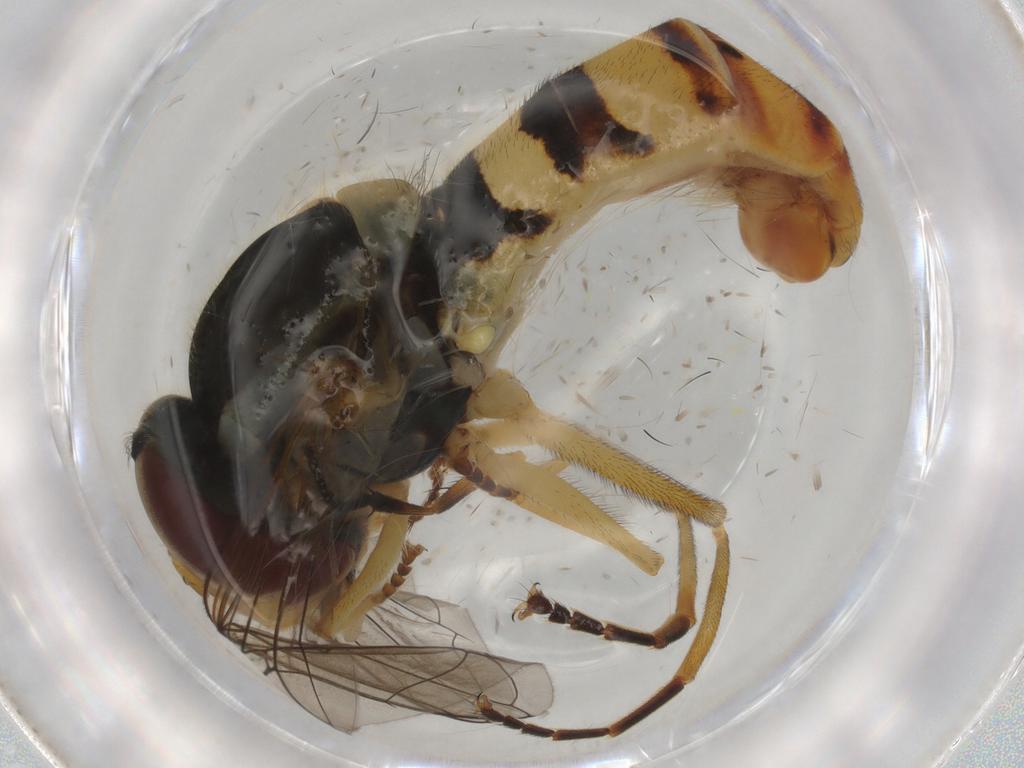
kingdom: Animalia
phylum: Arthropoda
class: Insecta
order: Diptera
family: Syrphidae
